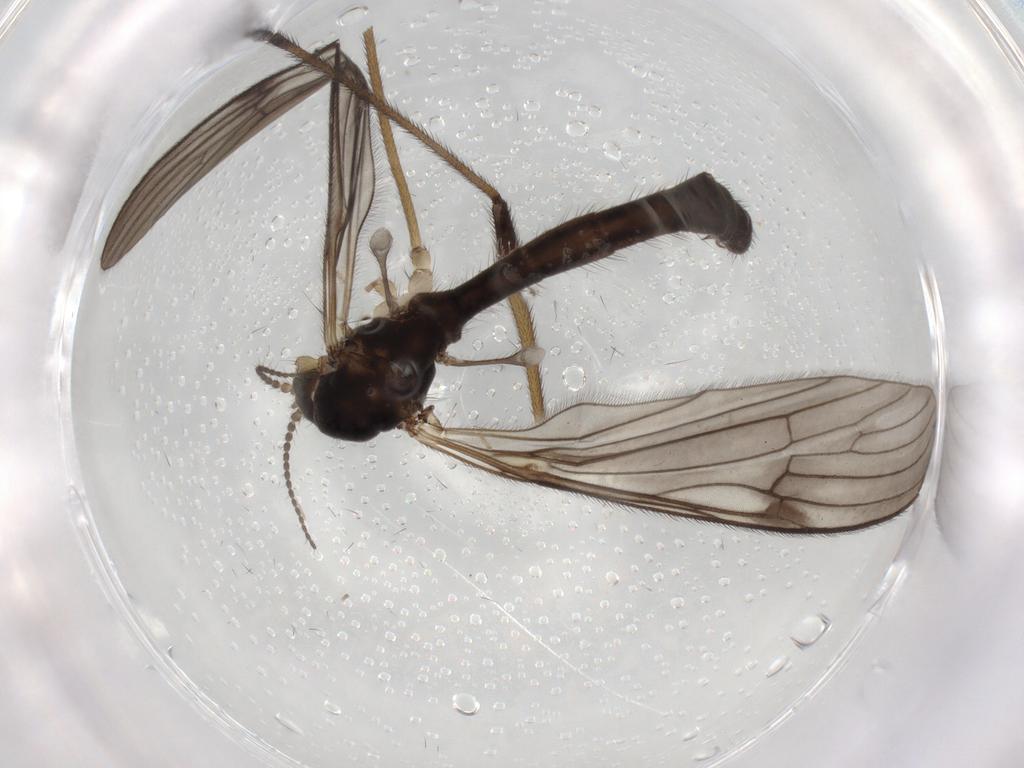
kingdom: Animalia
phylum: Arthropoda
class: Insecta
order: Diptera
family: Limoniidae
